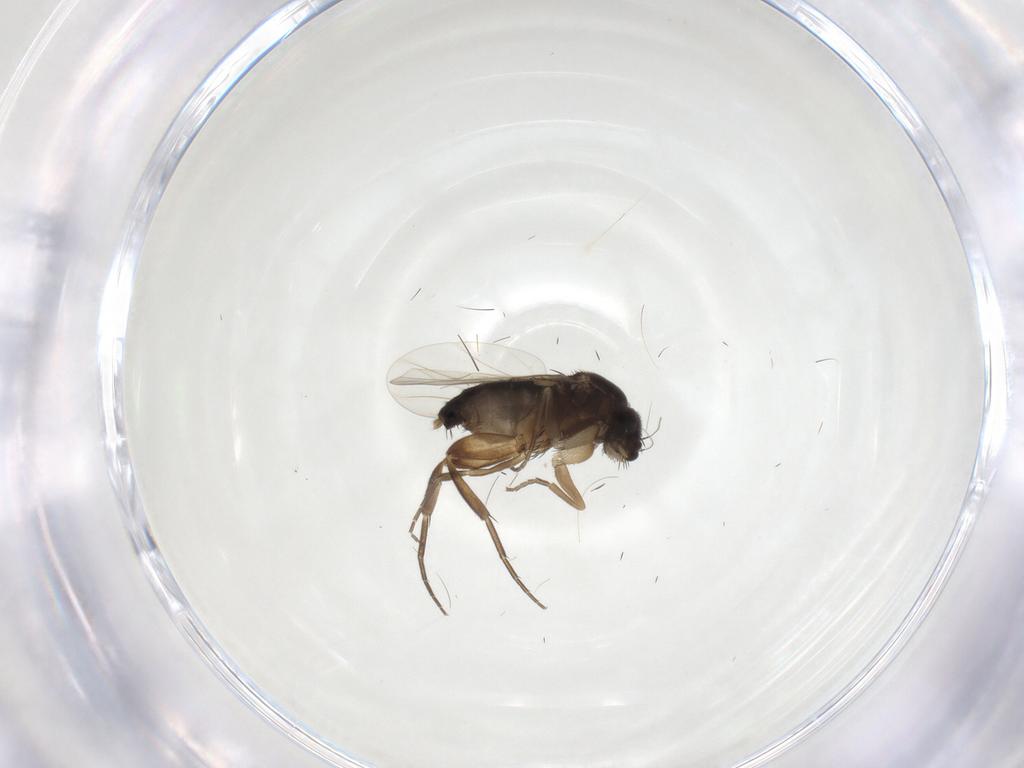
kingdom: Animalia
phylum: Arthropoda
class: Insecta
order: Diptera
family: Phoridae
